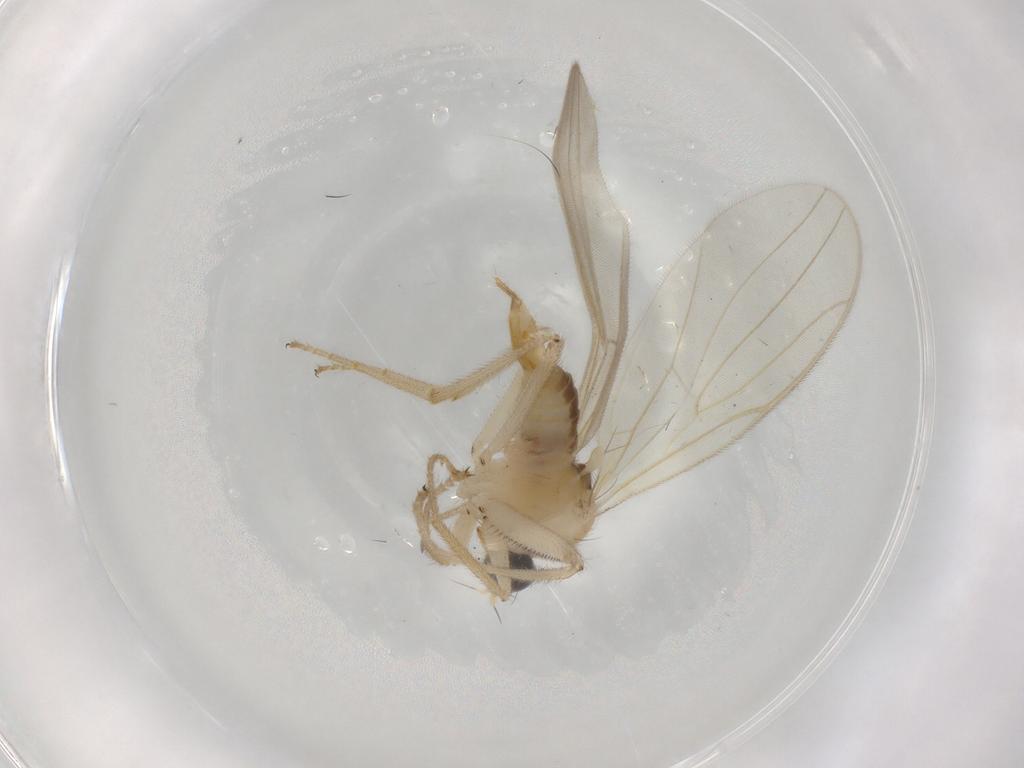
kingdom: Animalia
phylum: Arthropoda
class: Insecta
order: Diptera
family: Hybotidae
